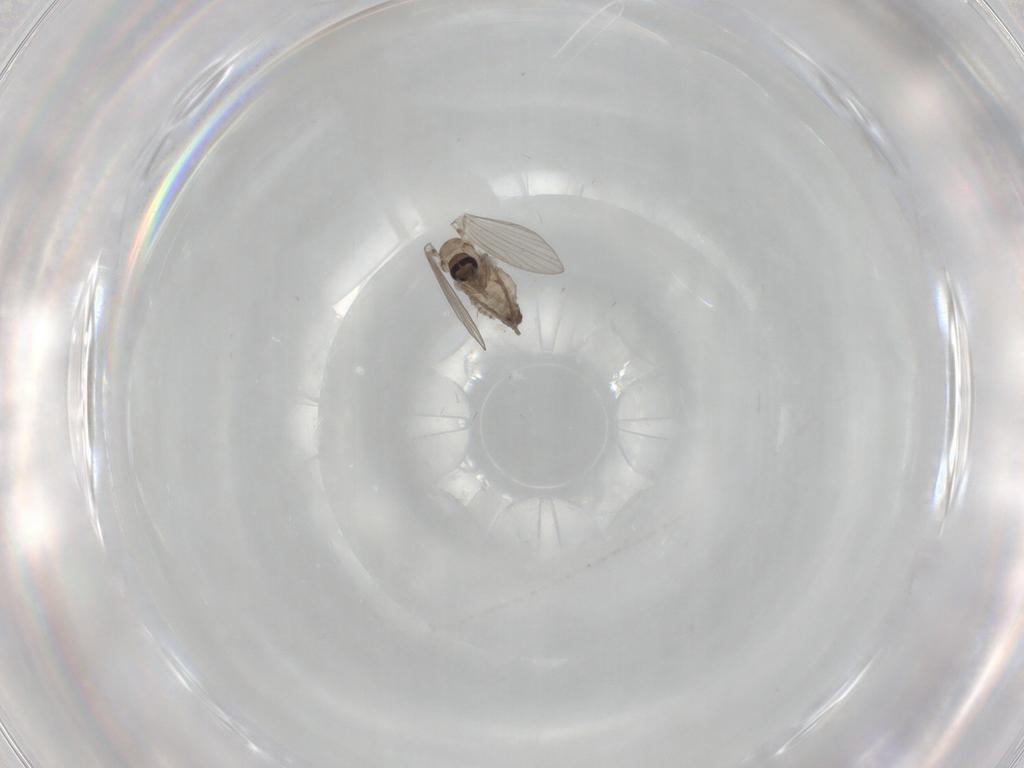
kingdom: Animalia
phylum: Arthropoda
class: Insecta
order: Diptera
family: Psychodidae
